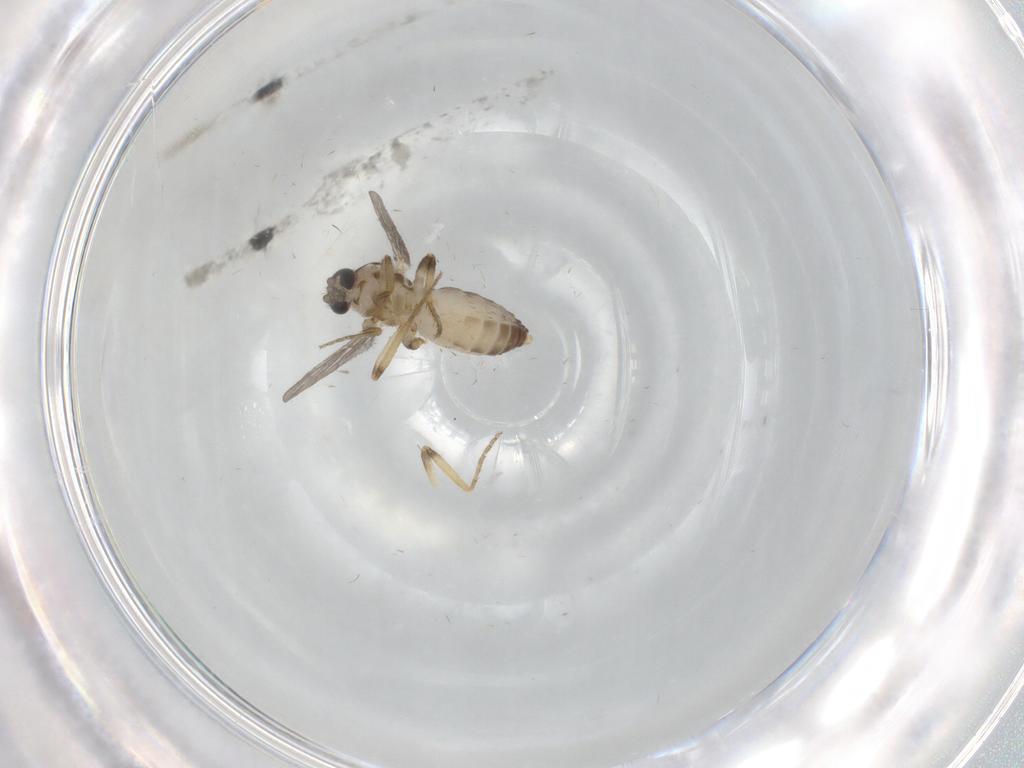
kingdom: Animalia
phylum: Arthropoda
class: Insecta
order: Diptera
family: Ceratopogonidae
